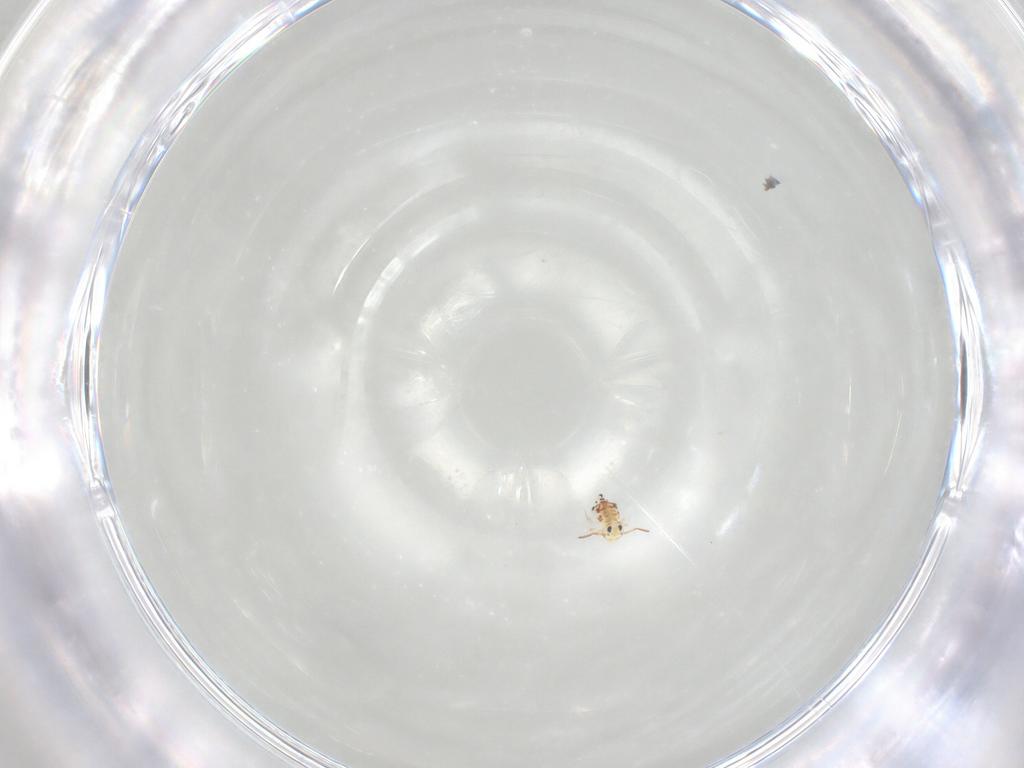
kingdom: Animalia
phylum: Arthropoda
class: Collembola
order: Symphypleona
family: Bourletiellidae
